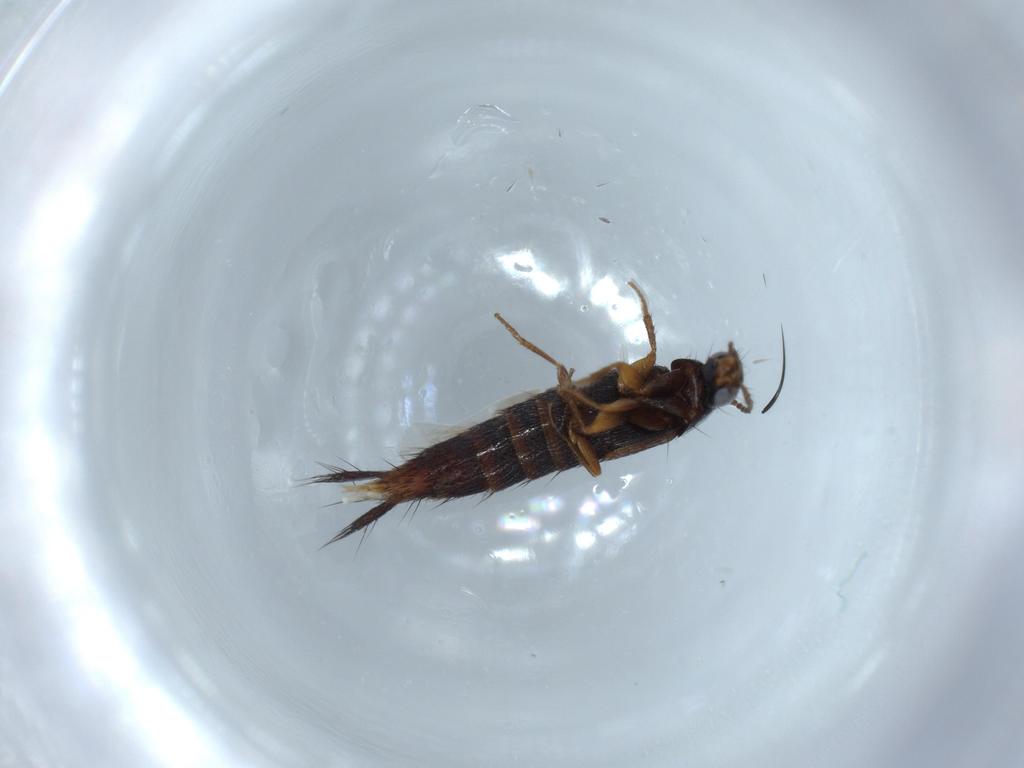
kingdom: Animalia
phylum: Arthropoda
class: Insecta
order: Coleoptera
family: Staphylinidae
